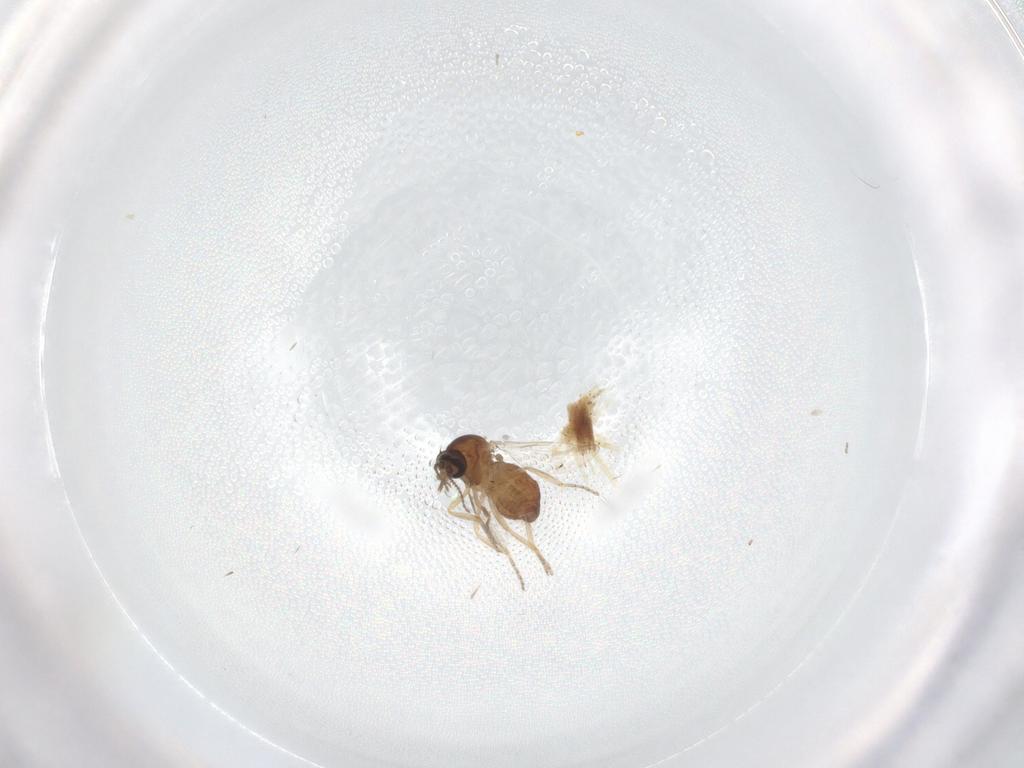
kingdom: Animalia
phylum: Arthropoda
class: Insecta
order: Diptera
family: Ceratopogonidae
